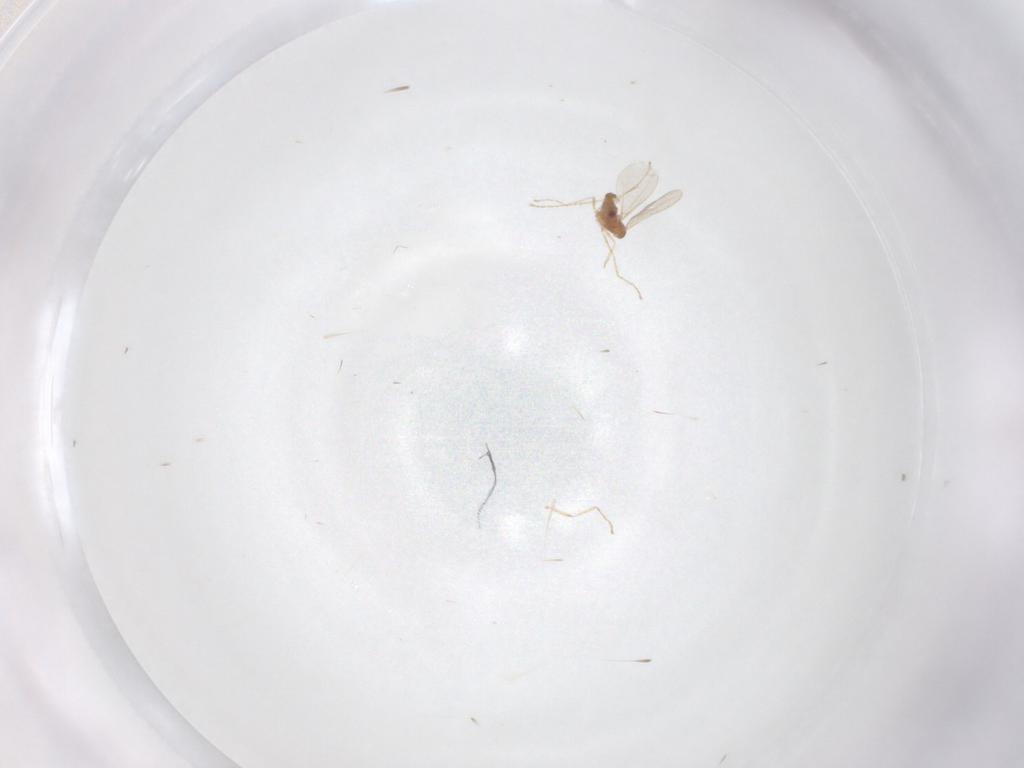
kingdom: Animalia
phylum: Arthropoda
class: Insecta
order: Diptera
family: Cecidomyiidae
